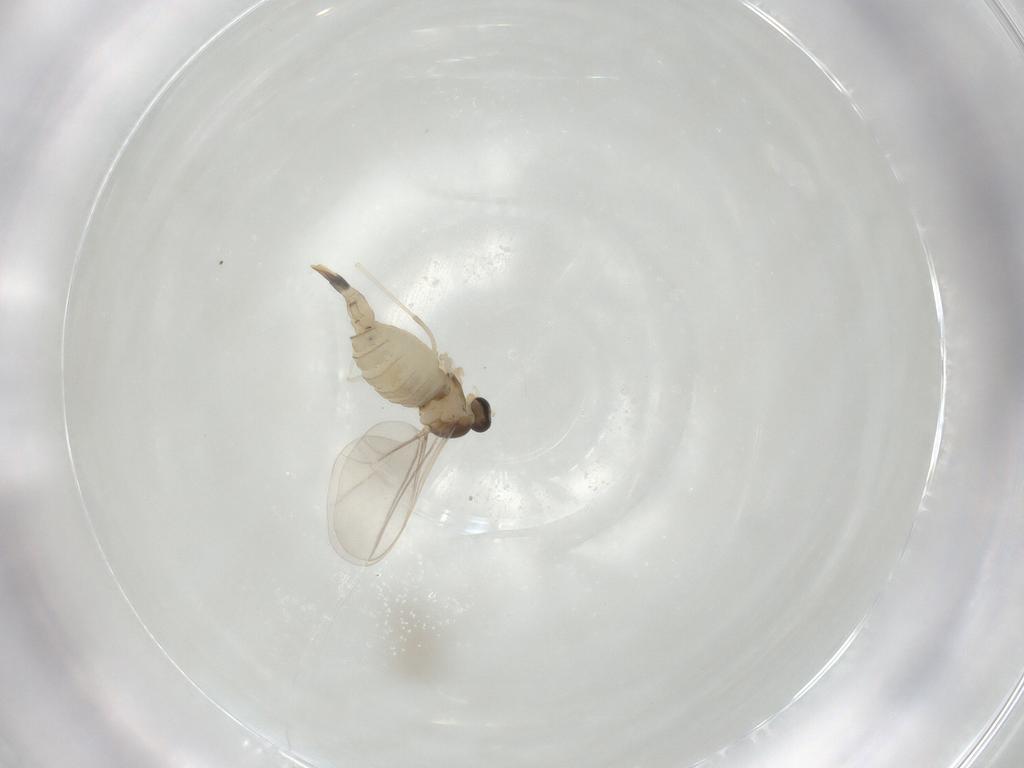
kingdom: Animalia
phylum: Arthropoda
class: Insecta
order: Diptera
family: Cecidomyiidae
